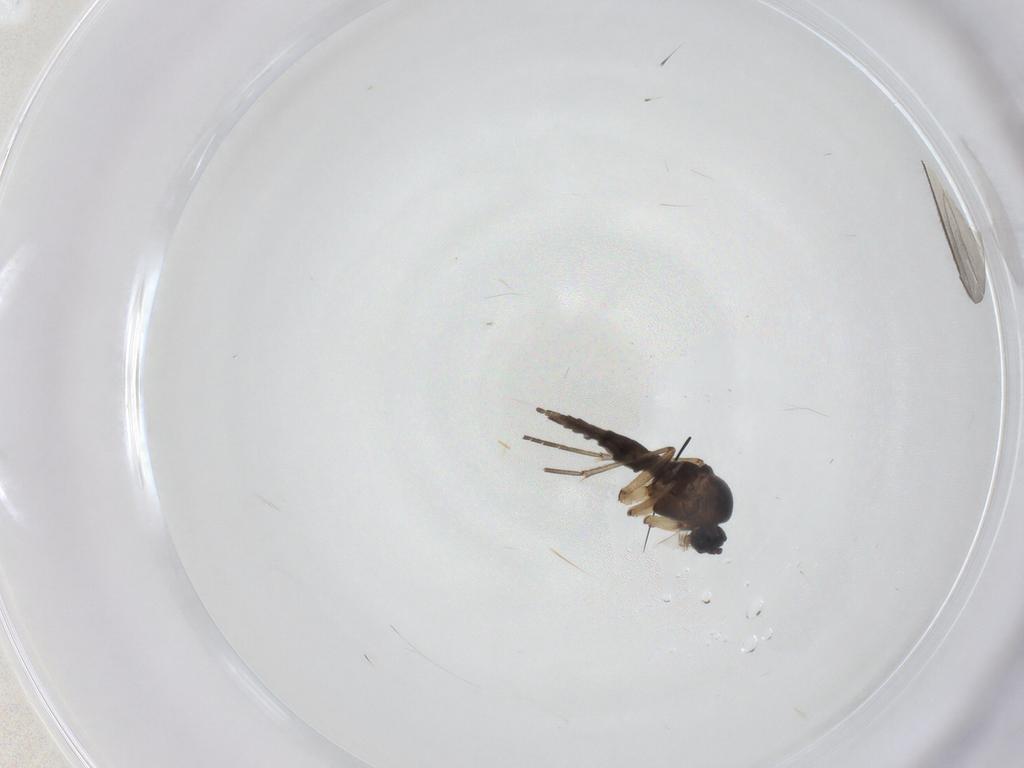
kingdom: Animalia
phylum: Arthropoda
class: Insecta
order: Diptera
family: Sciaridae
